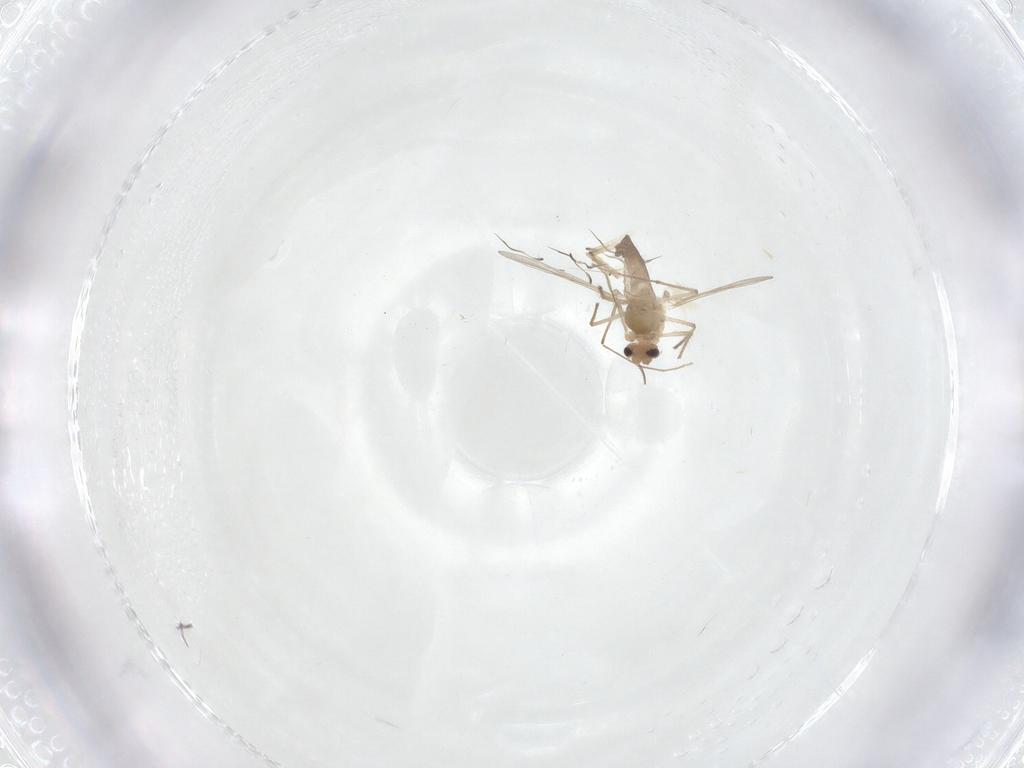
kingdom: Animalia
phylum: Arthropoda
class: Insecta
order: Diptera
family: Chironomidae
